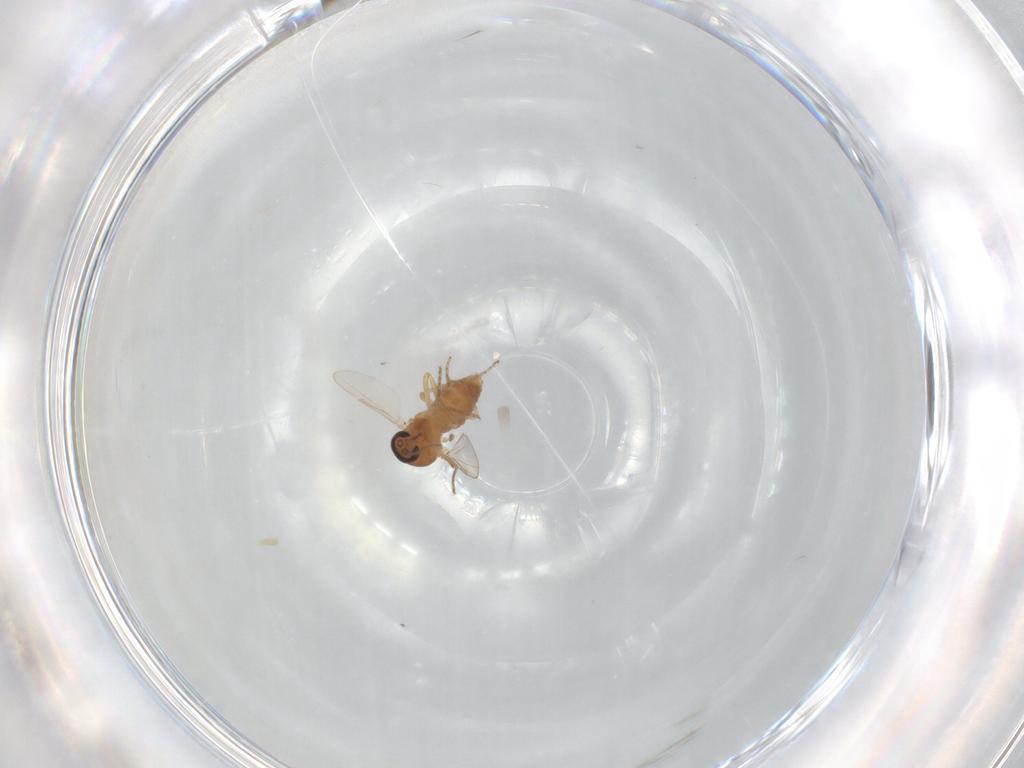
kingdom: Animalia
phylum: Arthropoda
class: Insecta
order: Diptera
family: Ceratopogonidae
